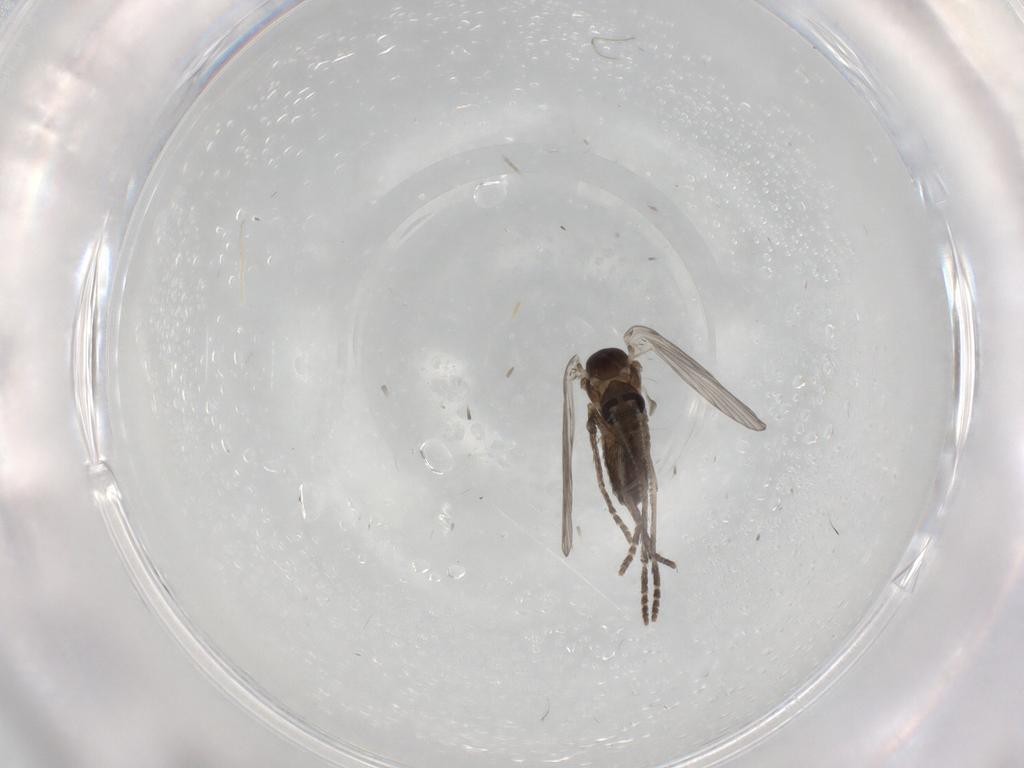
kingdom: Animalia
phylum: Arthropoda
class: Insecta
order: Diptera
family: Psychodidae
